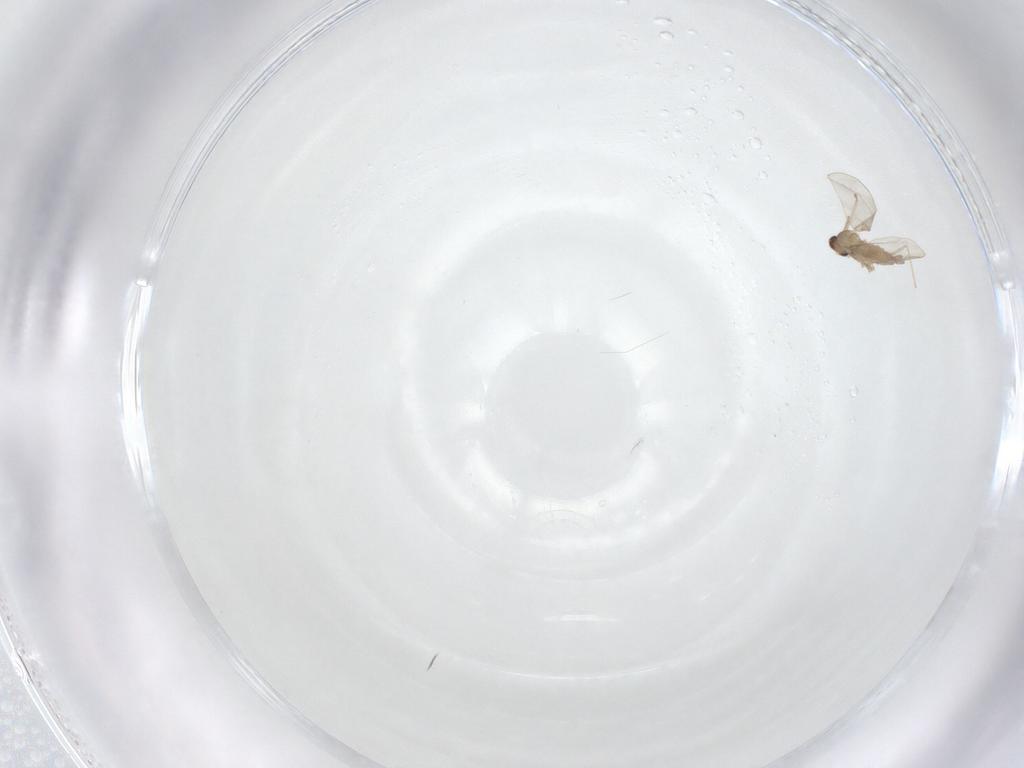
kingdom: Animalia
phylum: Arthropoda
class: Insecta
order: Diptera
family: Chironomidae
